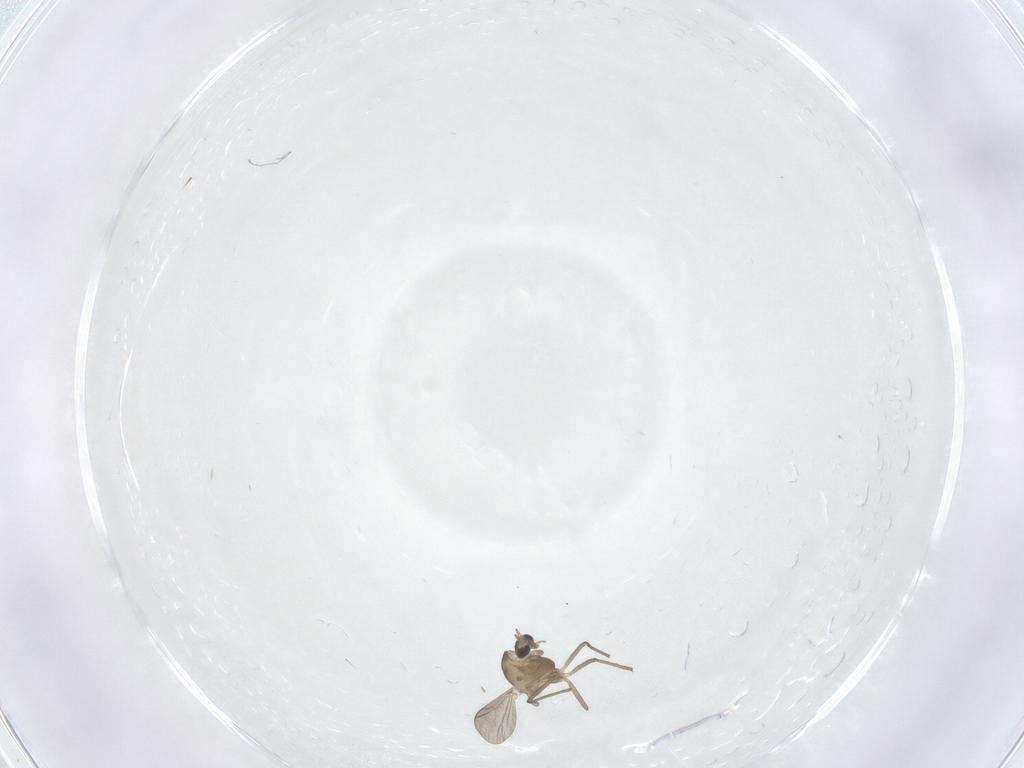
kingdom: Animalia
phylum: Arthropoda
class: Insecta
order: Diptera
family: Chironomidae
